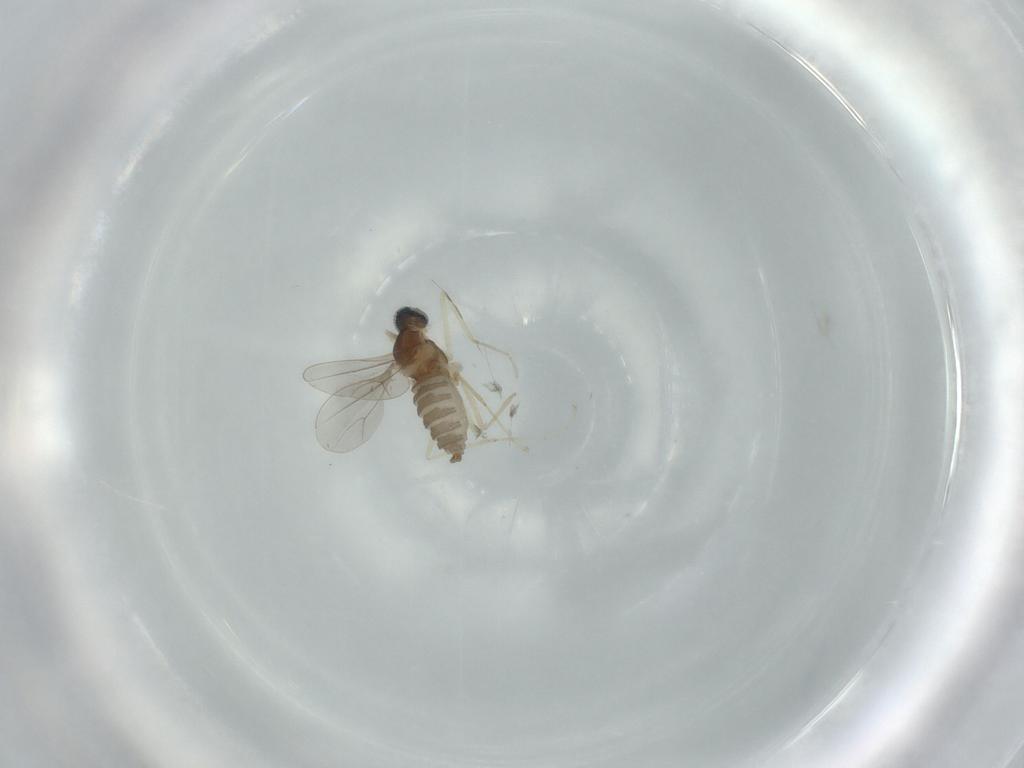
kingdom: Animalia
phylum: Arthropoda
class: Insecta
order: Diptera
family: Cecidomyiidae
